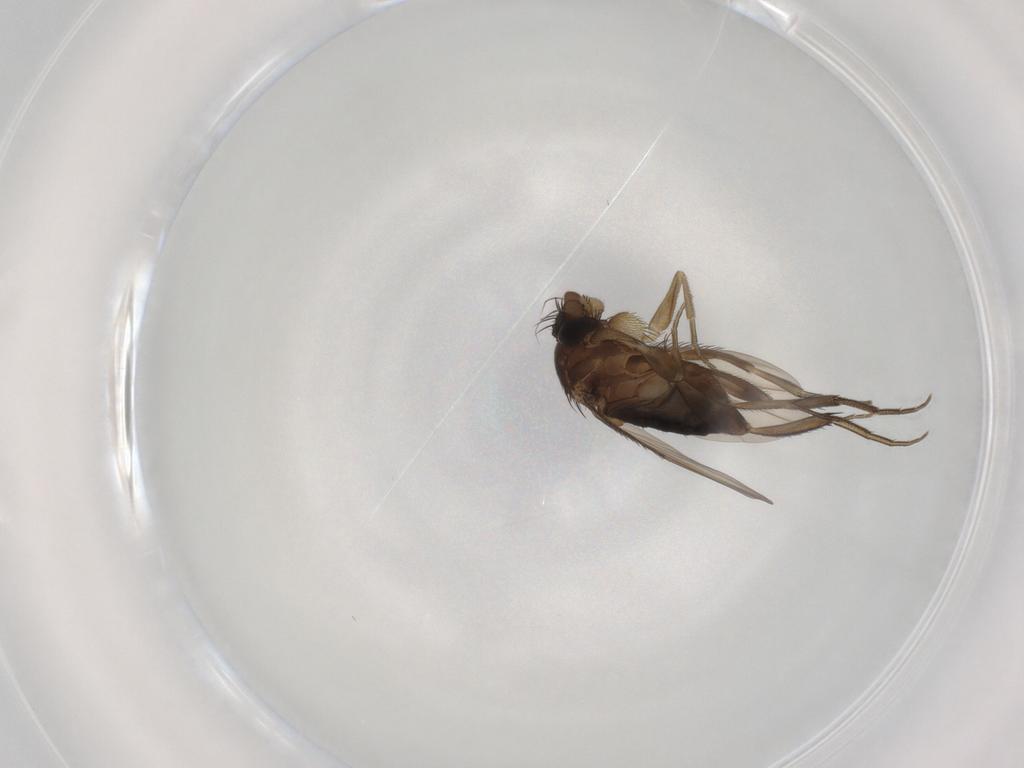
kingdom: Animalia
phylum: Arthropoda
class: Insecta
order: Diptera
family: Phoridae
